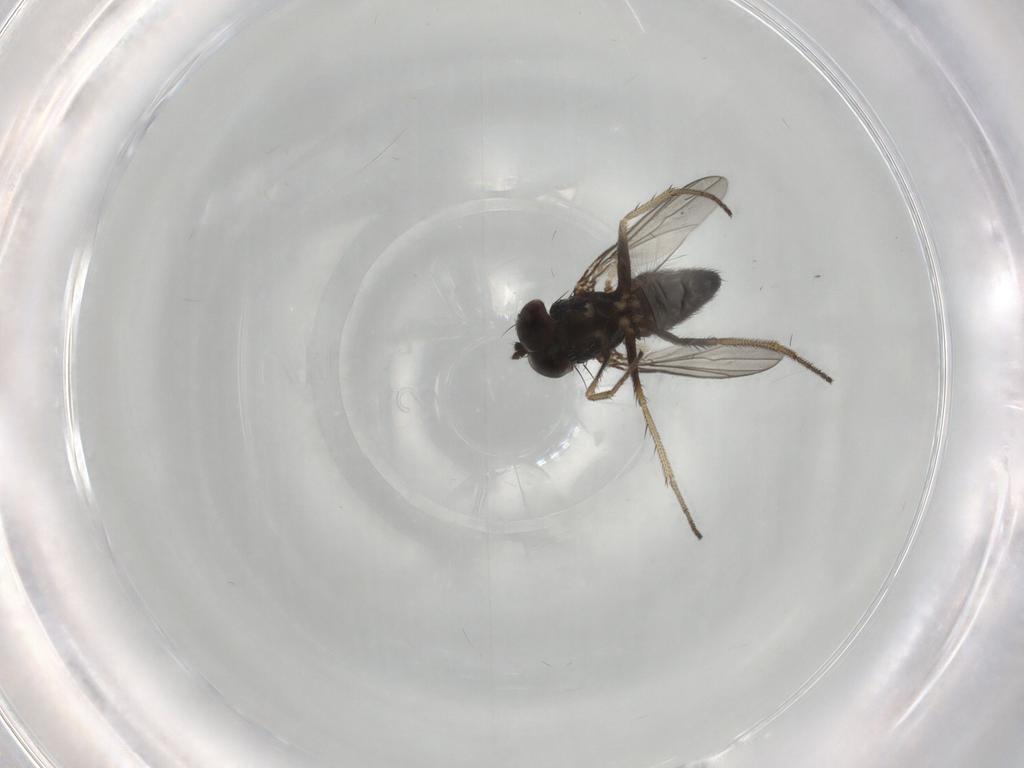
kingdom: Animalia
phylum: Arthropoda
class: Insecta
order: Diptera
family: Dolichopodidae
